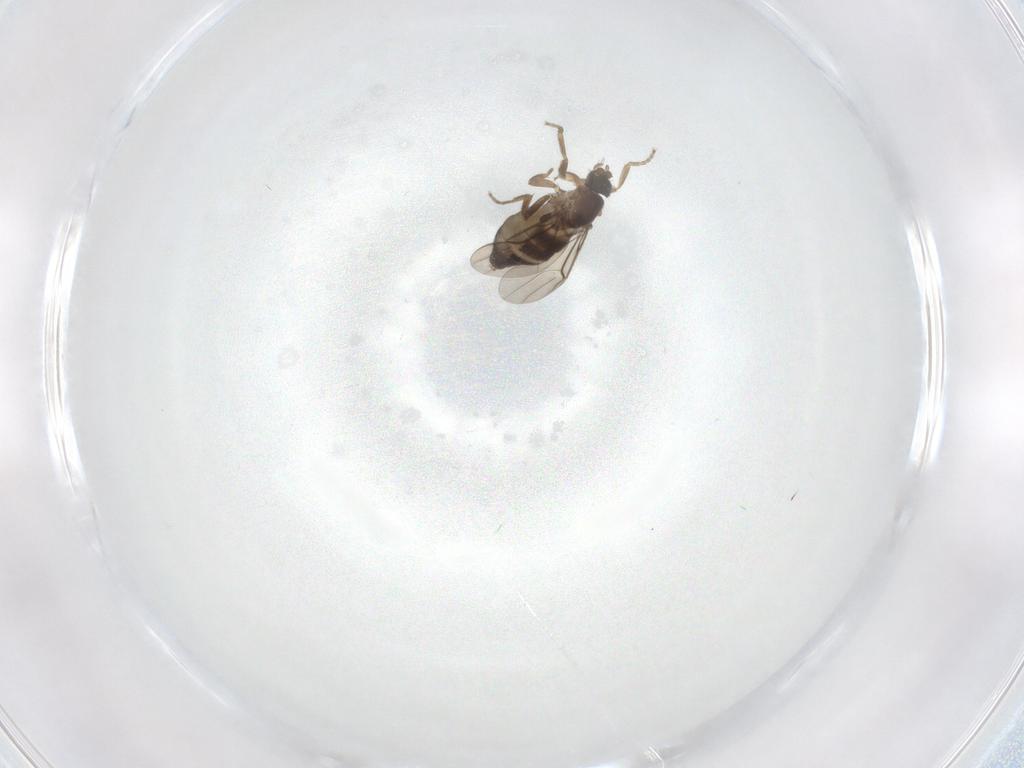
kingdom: Animalia
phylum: Arthropoda
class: Insecta
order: Diptera
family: Phoridae
